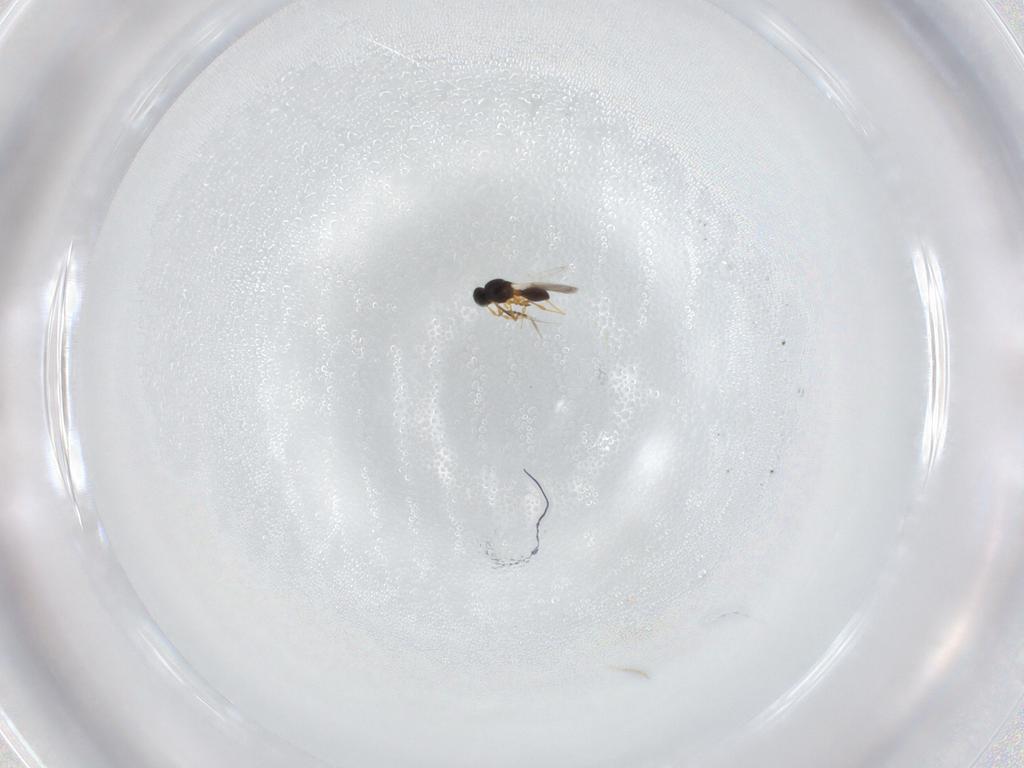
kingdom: Animalia
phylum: Arthropoda
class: Insecta
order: Hymenoptera
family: Platygastridae
